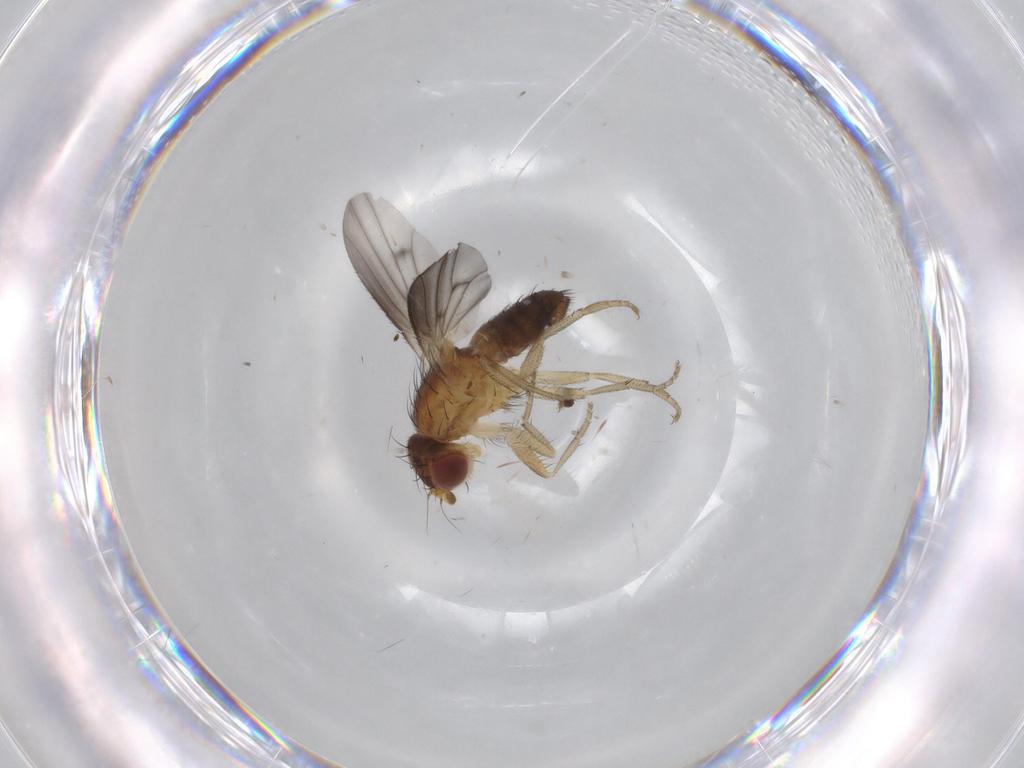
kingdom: Animalia
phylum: Arthropoda
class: Insecta
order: Diptera
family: Heleomyzidae
